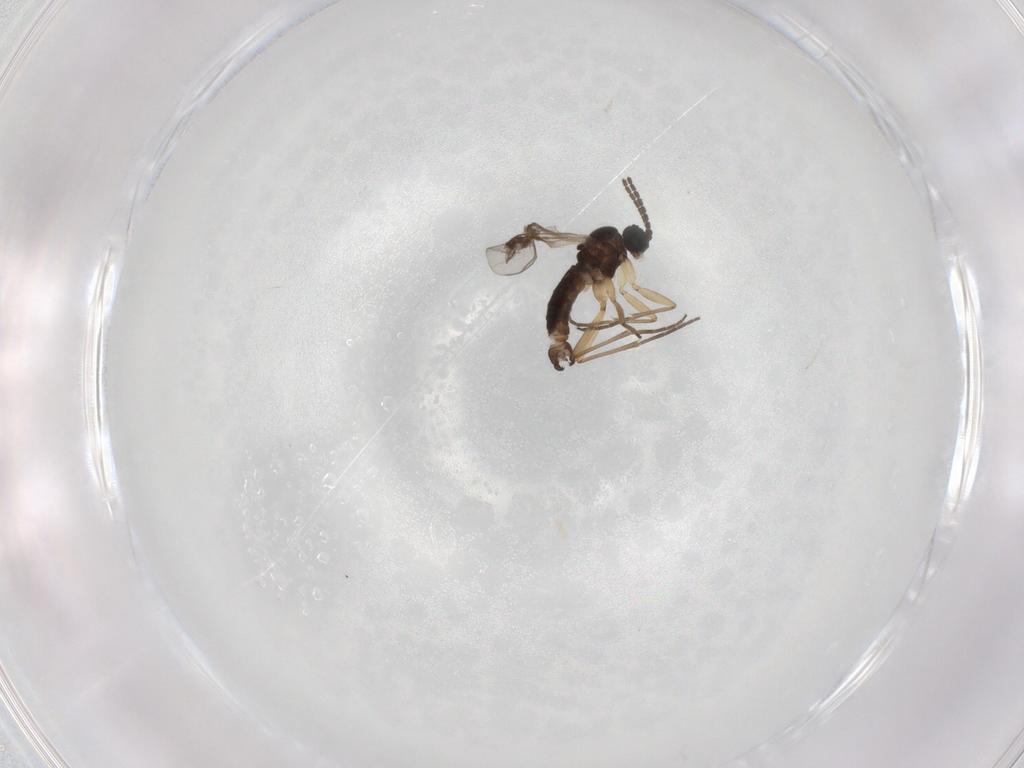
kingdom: Animalia
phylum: Arthropoda
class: Insecta
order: Diptera
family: Sciaridae
